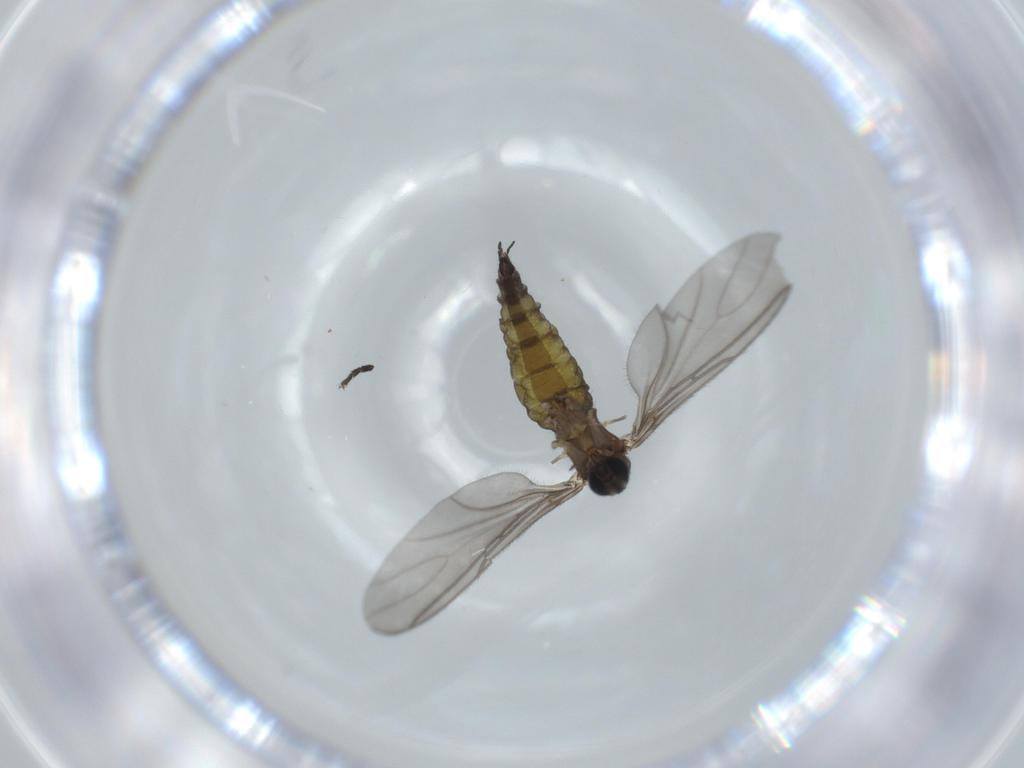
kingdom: Animalia
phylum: Arthropoda
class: Insecta
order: Diptera
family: Sciaridae
